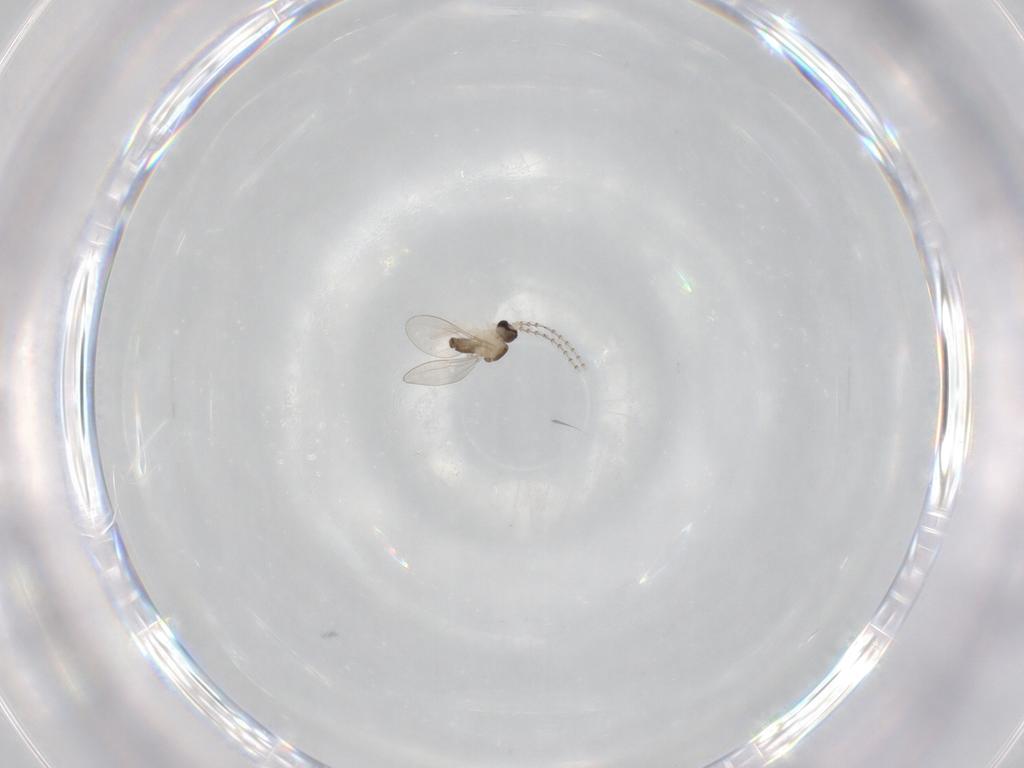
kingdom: Animalia
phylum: Arthropoda
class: Insecta
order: Diptera
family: Cecidomyiidae
